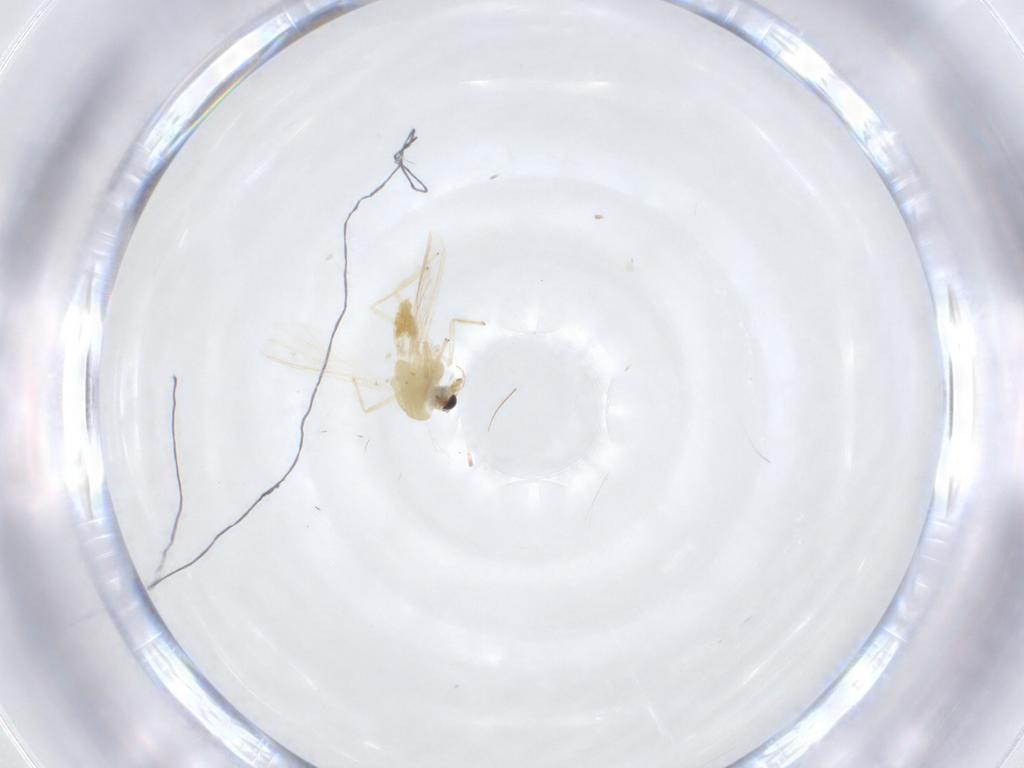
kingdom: Animalia
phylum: Arthropoda
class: Insecta
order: Diptera
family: Chironomidae
